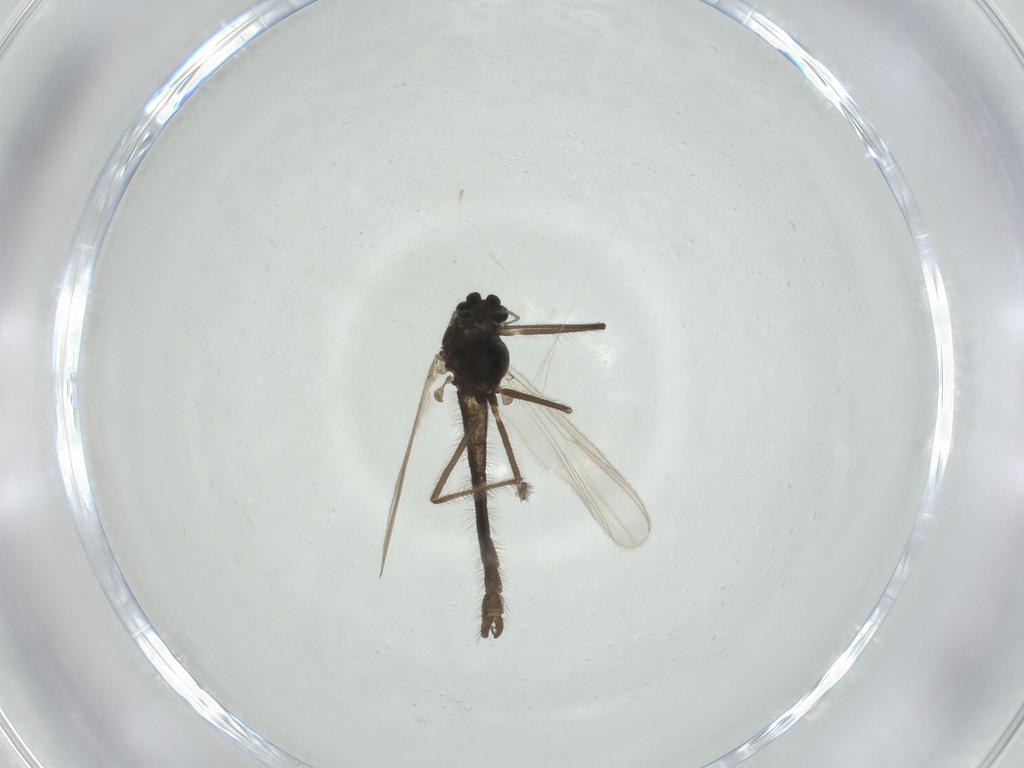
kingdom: Animalia
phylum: Arthropoda
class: Insecta
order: Diptera
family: Chironomidae
